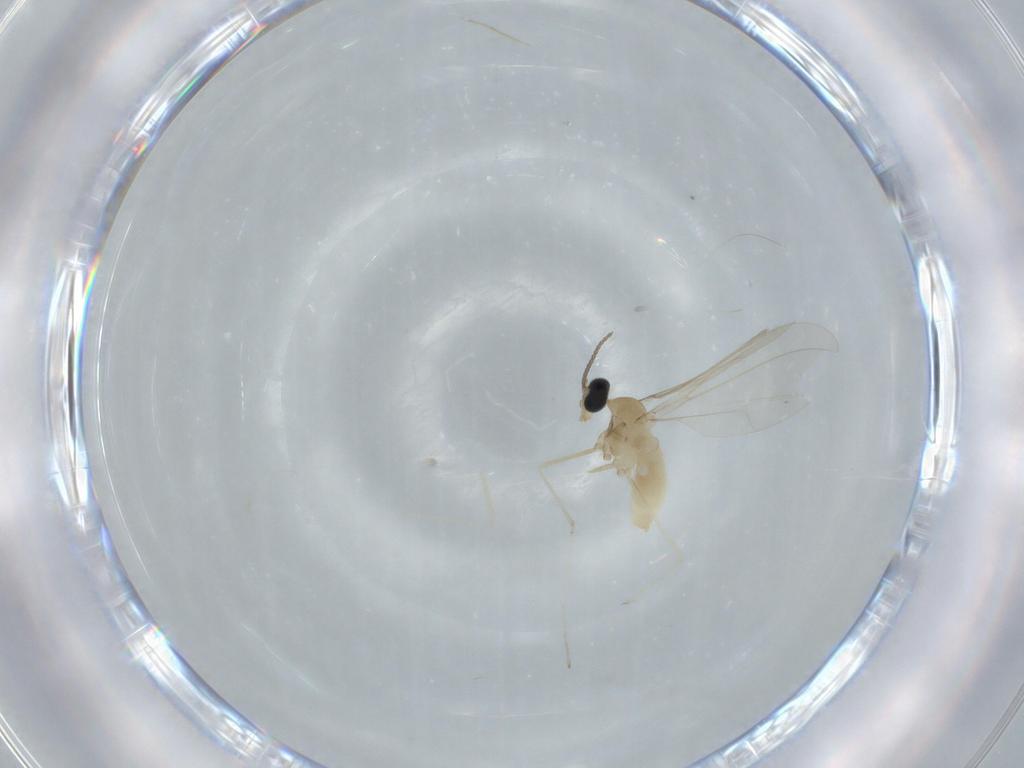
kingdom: Animalia
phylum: Arthropoda
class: Insecta
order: Diptera
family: Cecidomyiidae
